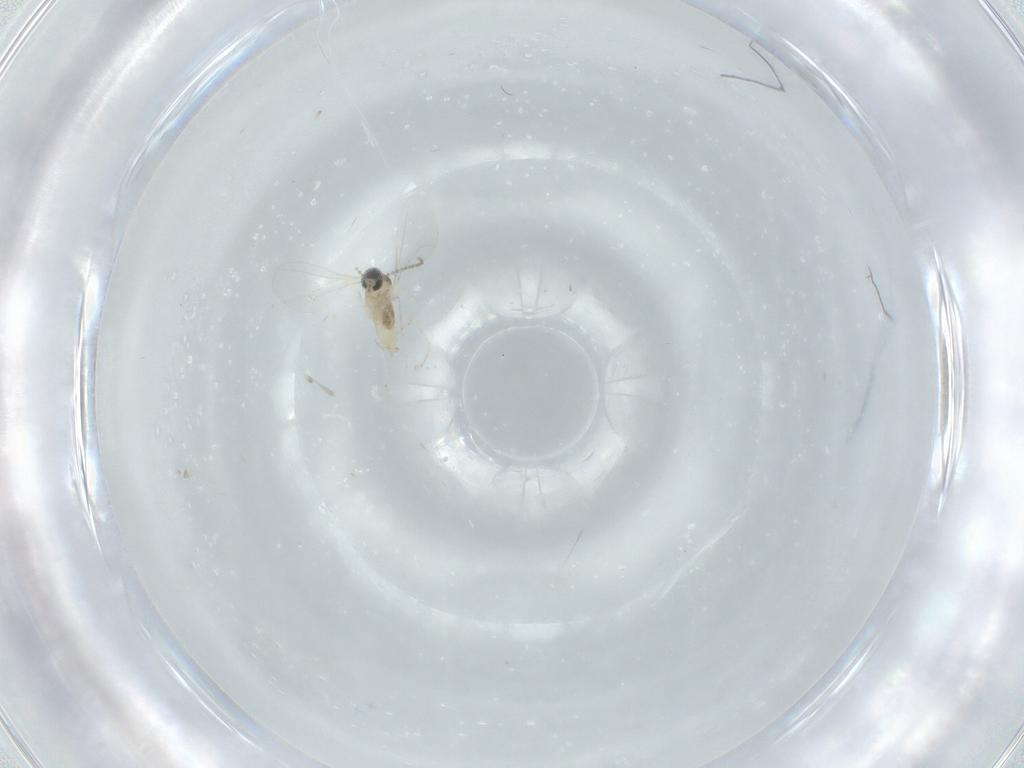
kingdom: Animalia
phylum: Arthropoda
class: Insecta
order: Diptera
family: Cecidomyiidae
